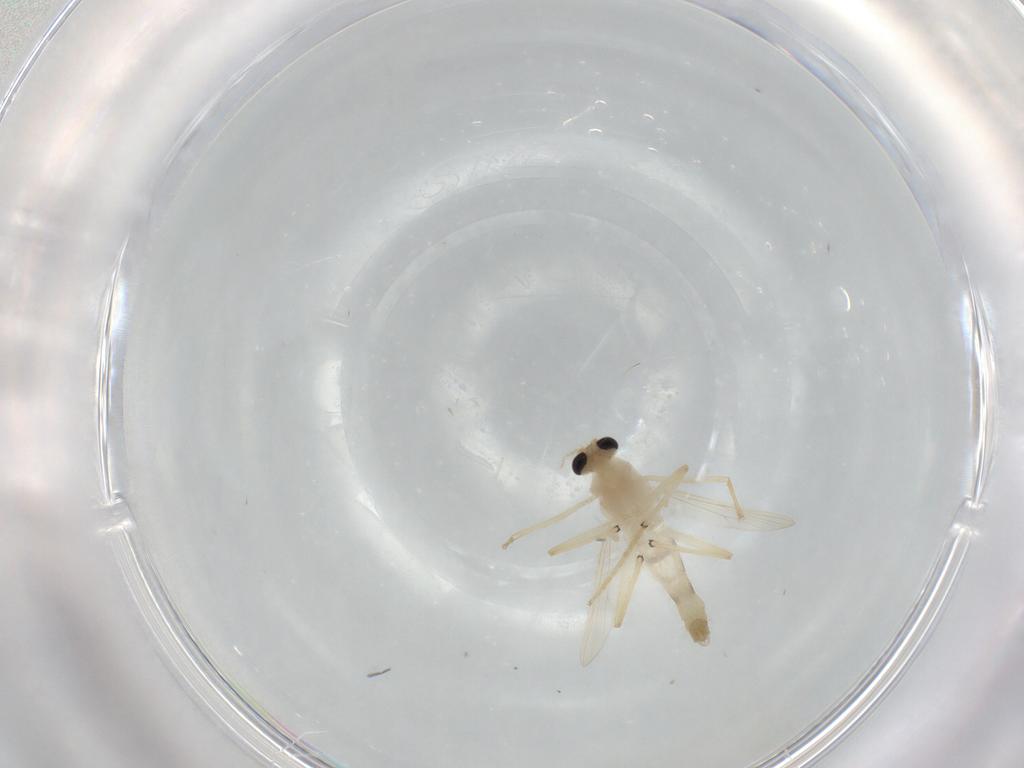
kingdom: Animalia
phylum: Arthropoda
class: Insecta
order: Diptera
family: Chironomidae
